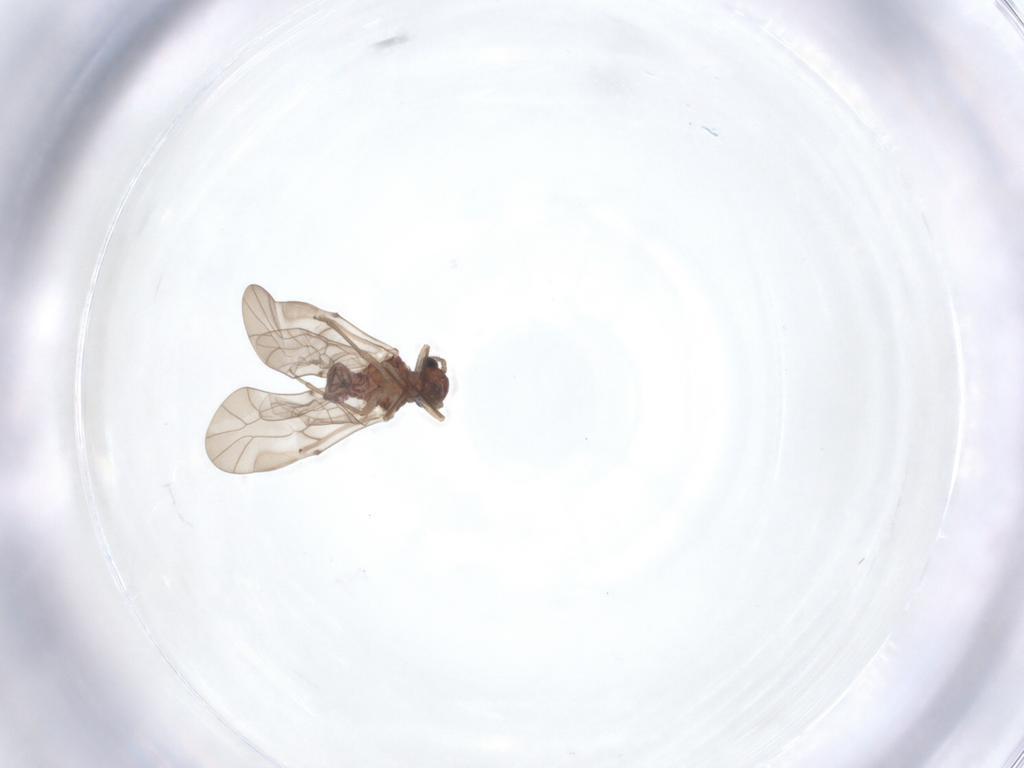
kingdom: Animalia
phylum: Arthropoda
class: Insecta
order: Psocodea
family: Peripsocidae
